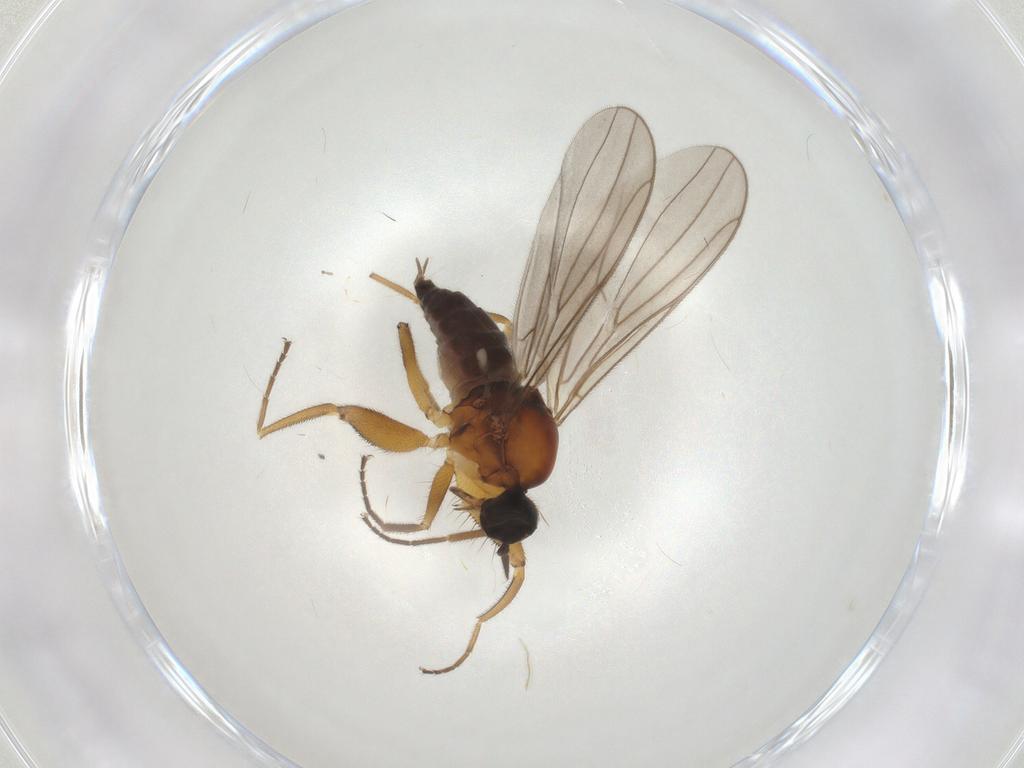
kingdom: Animalia
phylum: Arthropoda
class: Insecta
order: Diptera
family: Hybotidae
